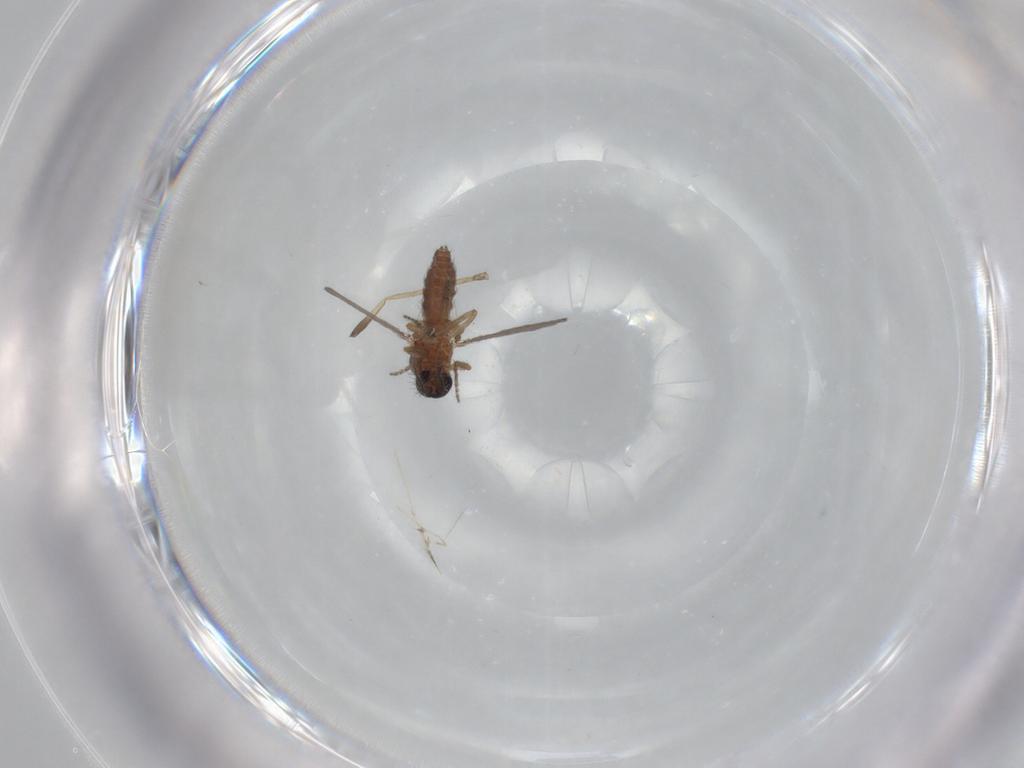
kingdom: Animalia
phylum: Arthropoda
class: Insecta
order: Diptera
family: Ceratopogonidae
